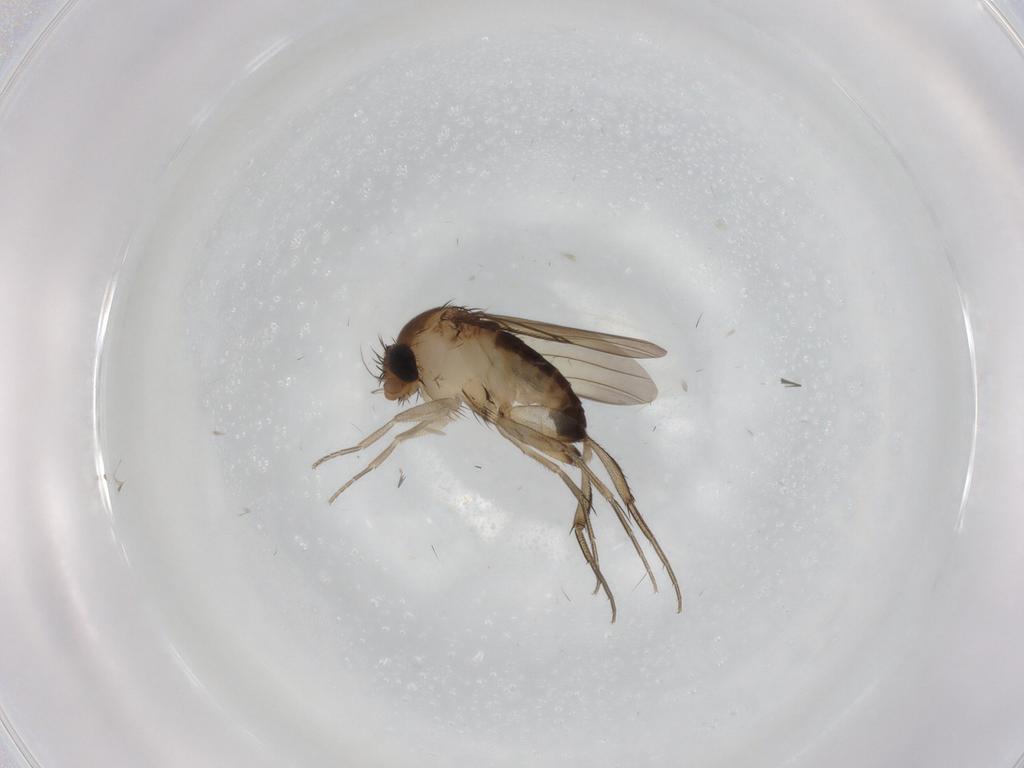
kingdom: Animalia
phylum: Arthropoda
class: Insecta
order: Diptera
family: Phoridae
